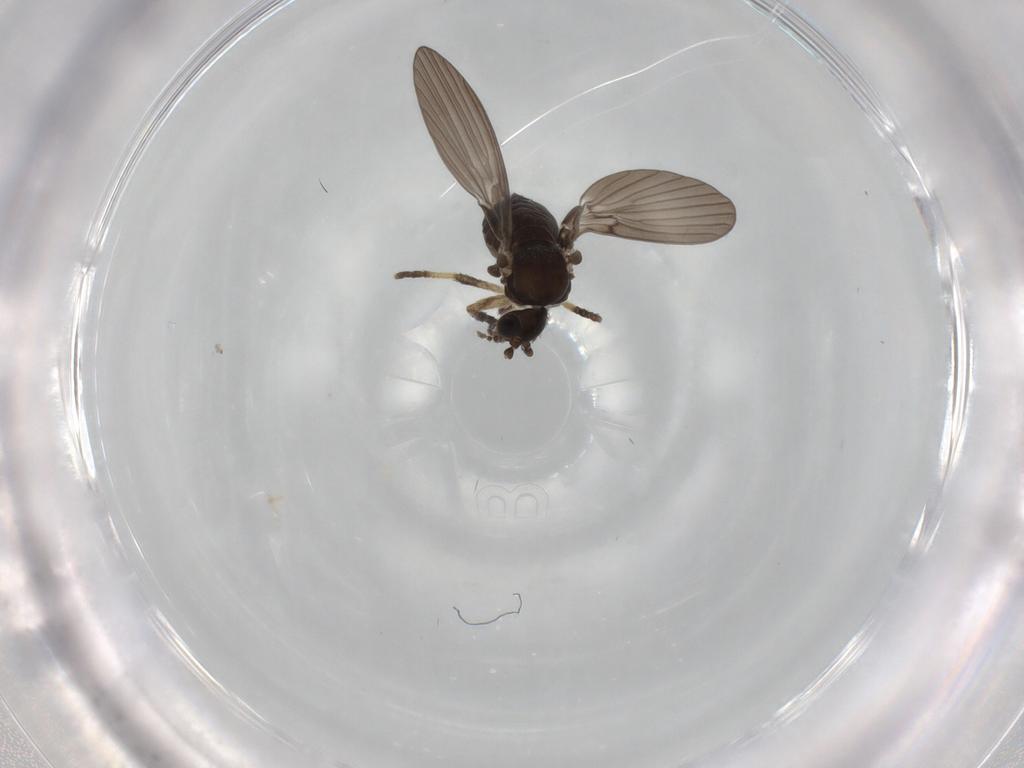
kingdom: Animalia
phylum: Arthropoda
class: Insecta
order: Diptera
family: Psychodidae
